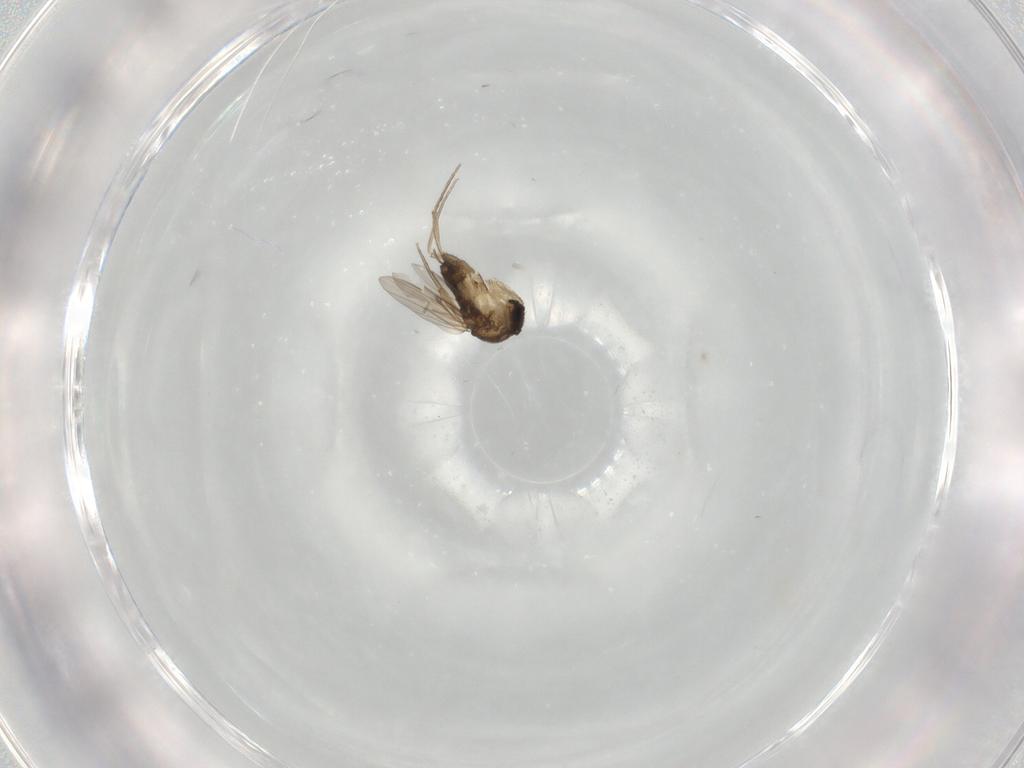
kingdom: Animalia
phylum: Arthropoda
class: Insecta
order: Diptera
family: Phoridae
